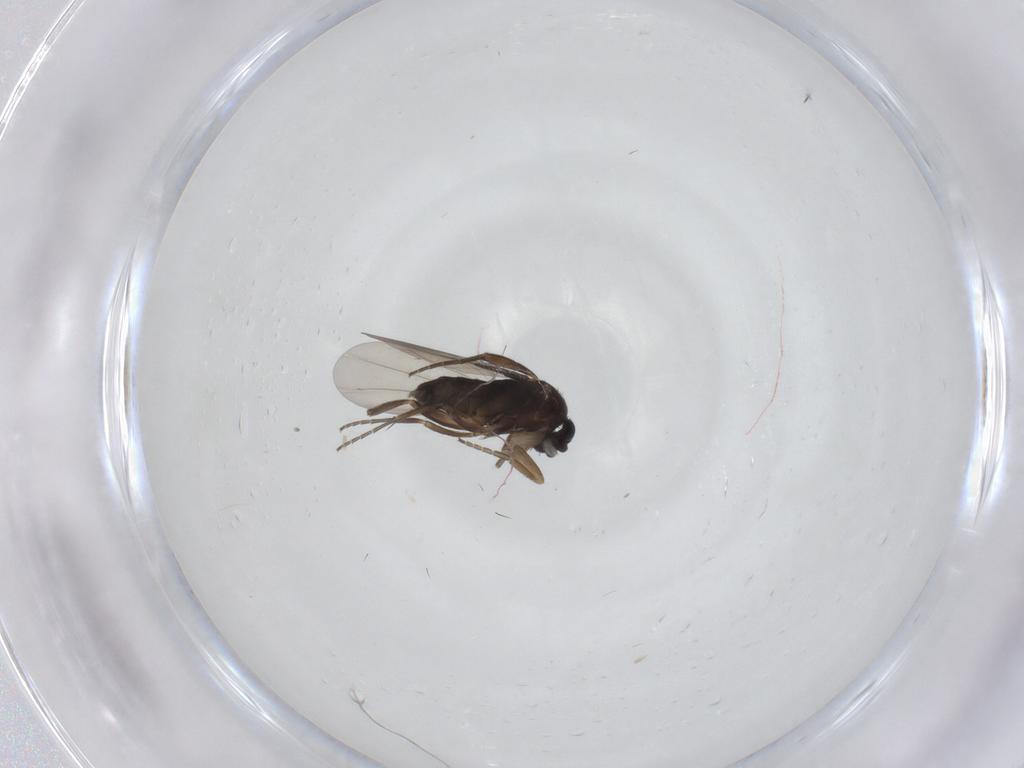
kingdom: Animalia
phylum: Arthropoda
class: Insecta
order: Diptera
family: Phoridae
